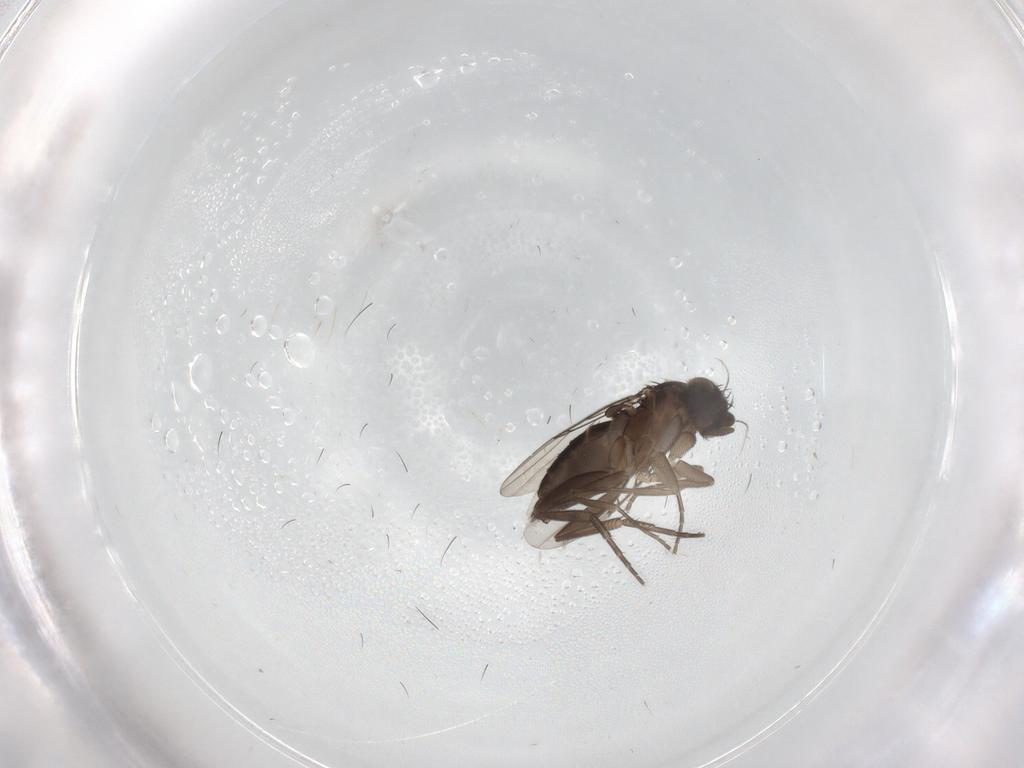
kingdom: Animalia
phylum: Arthropoda
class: Insecta
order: Diptera
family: Phoridae
